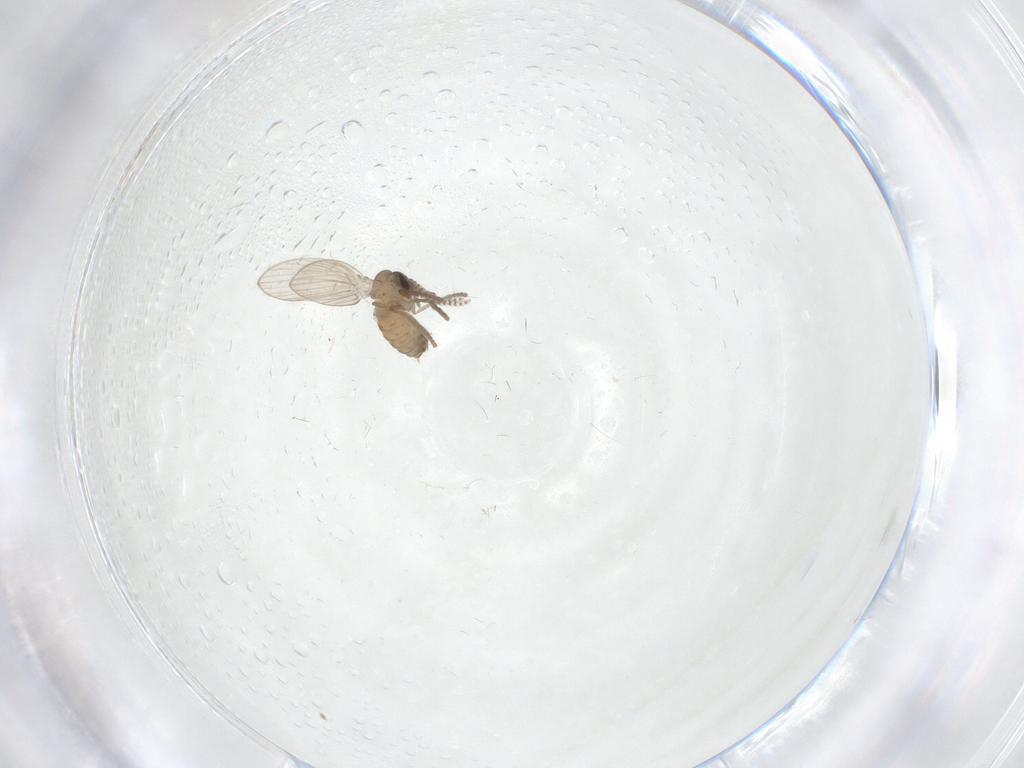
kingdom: Animalia
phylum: Arthropoda
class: Insecta
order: Diptera
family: Psychodidae
